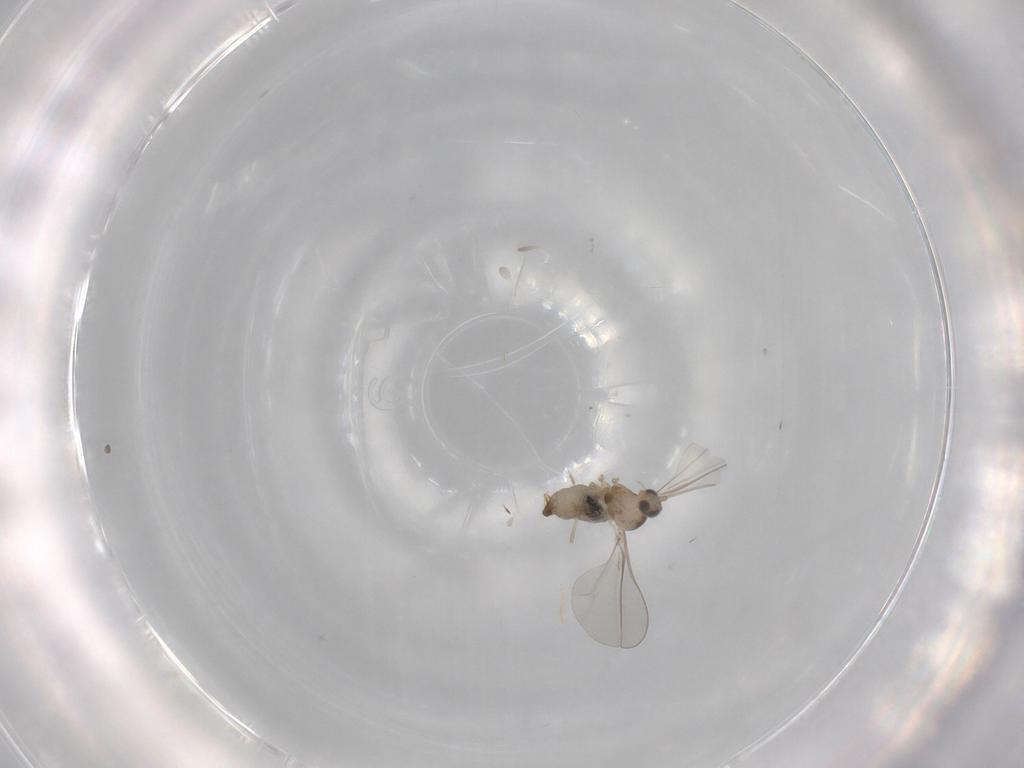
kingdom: Animalia
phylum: Arthropoda
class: Insecta
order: Diptera
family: Cecidomyiidae
